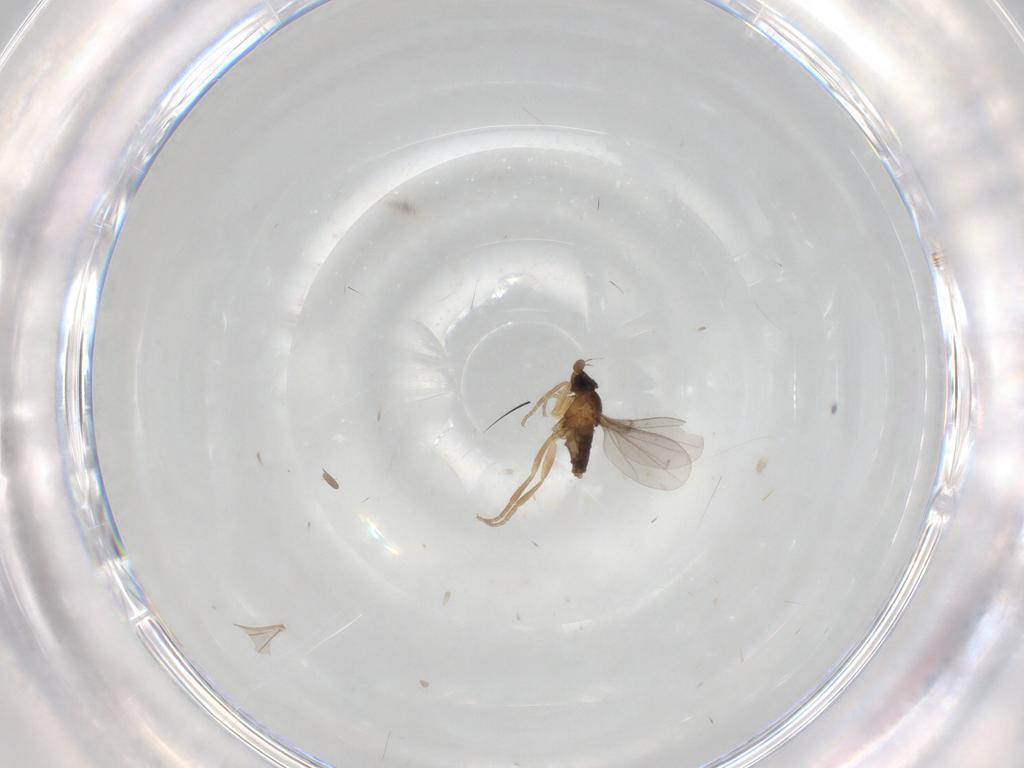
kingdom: Animalia
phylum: Arthropoda
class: Insecta
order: Diptera
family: Phoridae
